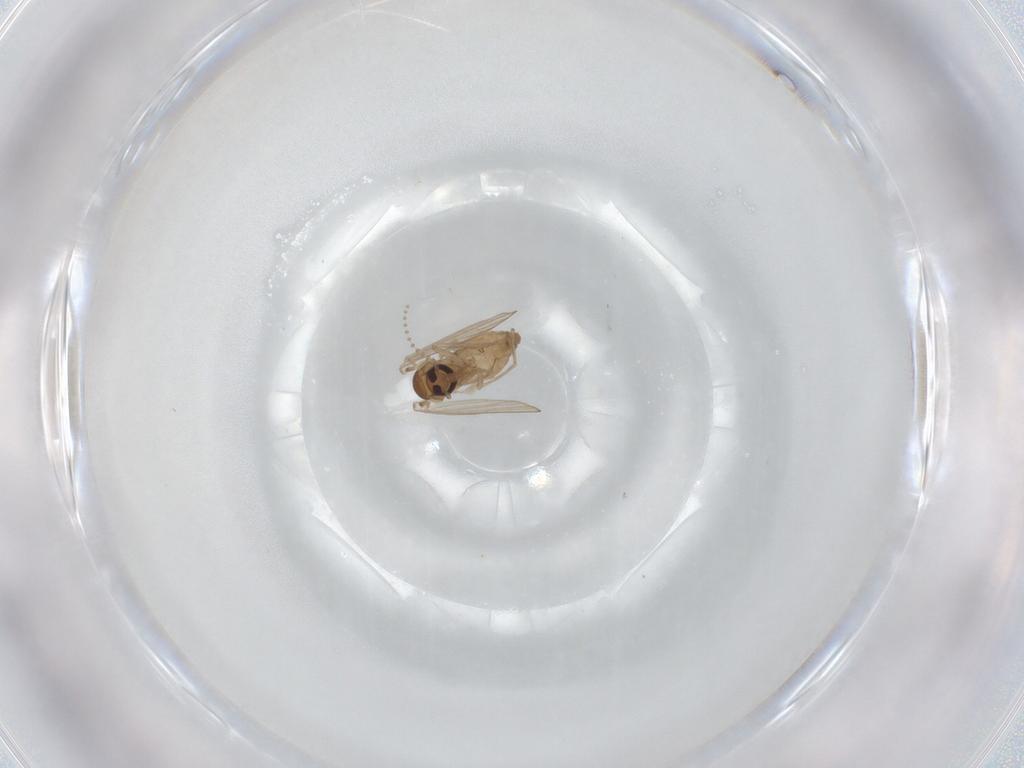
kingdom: Animalia
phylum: Arthropoda
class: Insecta
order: Diptera
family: Psychodidae
